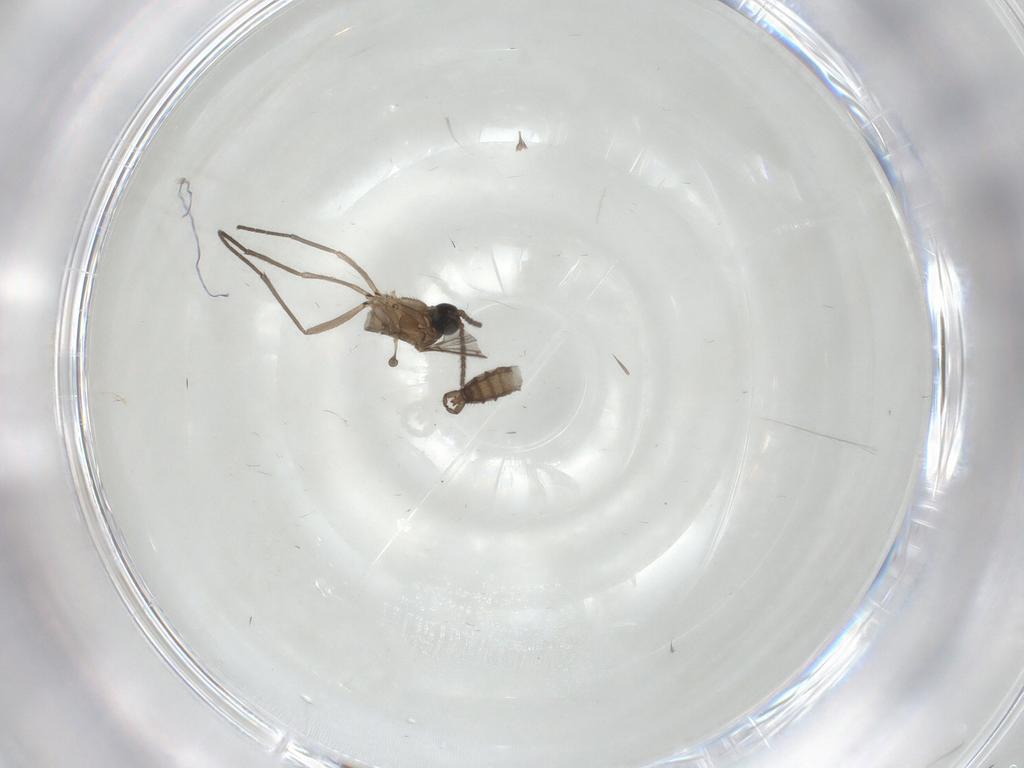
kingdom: Animalia
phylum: Arthropoda
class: Insecta
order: Diptera
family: Sciaridae
